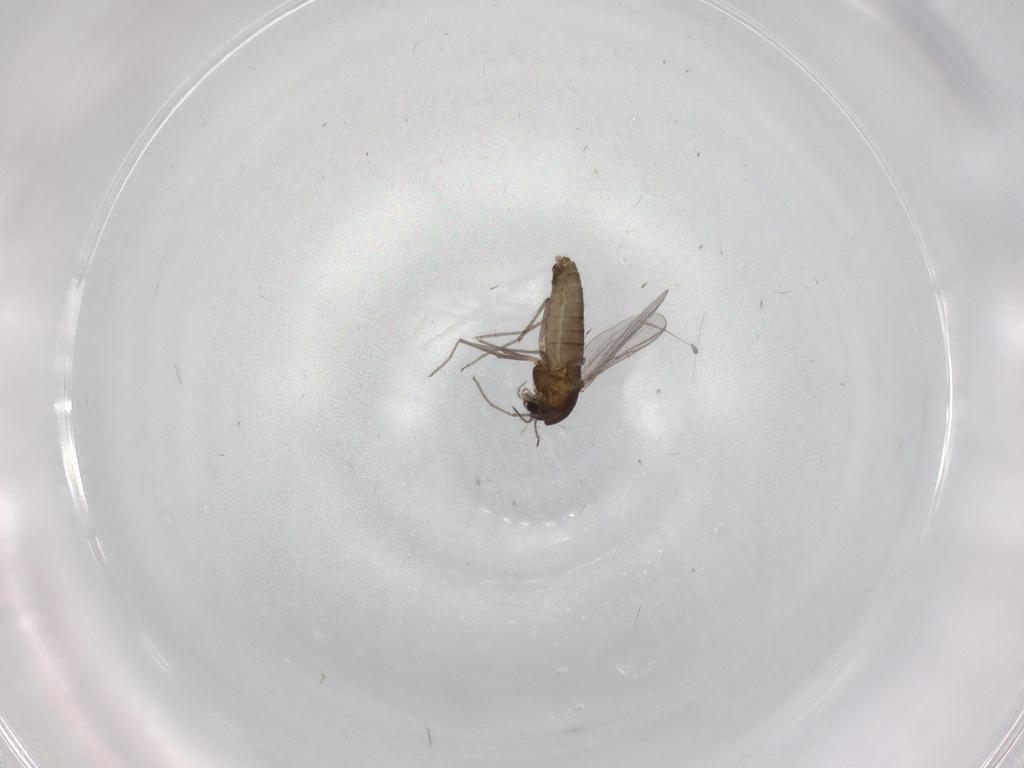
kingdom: Animalia
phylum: Arthropoda
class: Insecta
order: Diptera
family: Chironomidae
